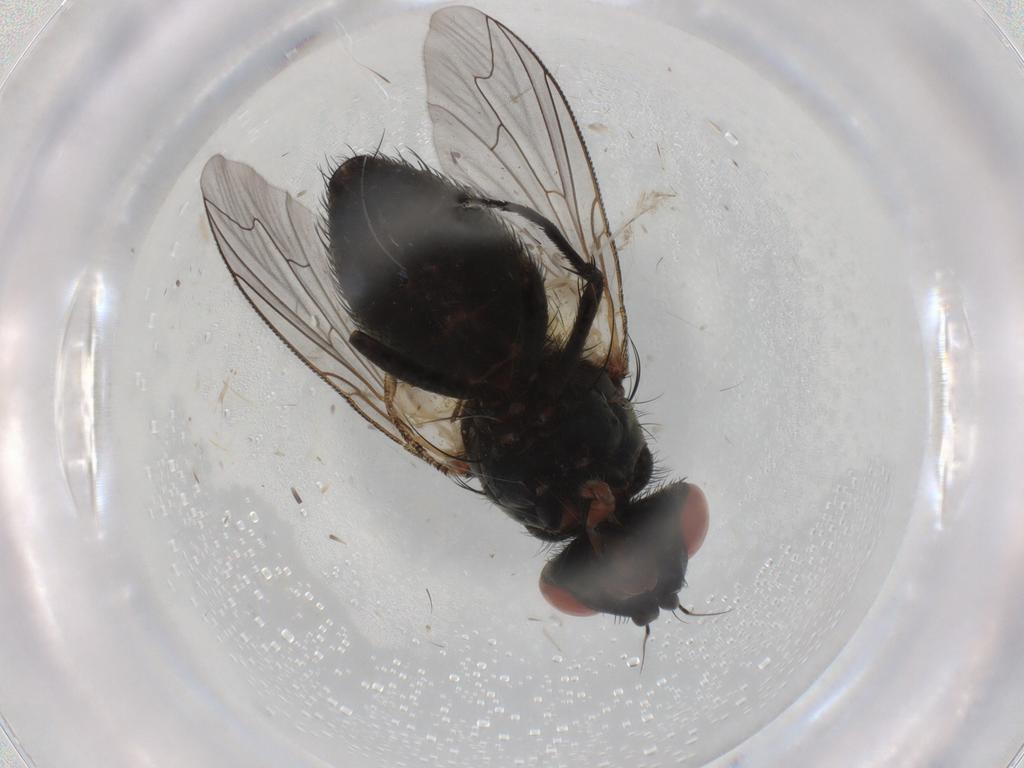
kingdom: Animalia
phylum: Arthropoda
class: Insecta
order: Diptera
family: Sarcophagidae
